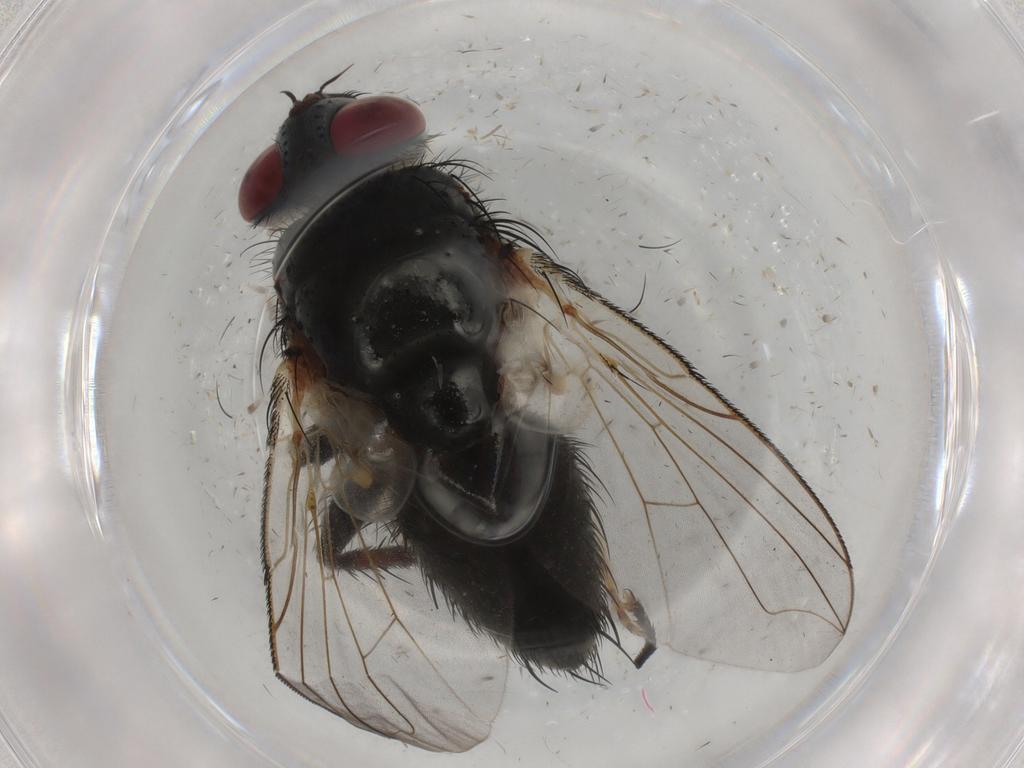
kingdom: Animalia
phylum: Arthropoda
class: Insecta
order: Diptera
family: Tachinidae
